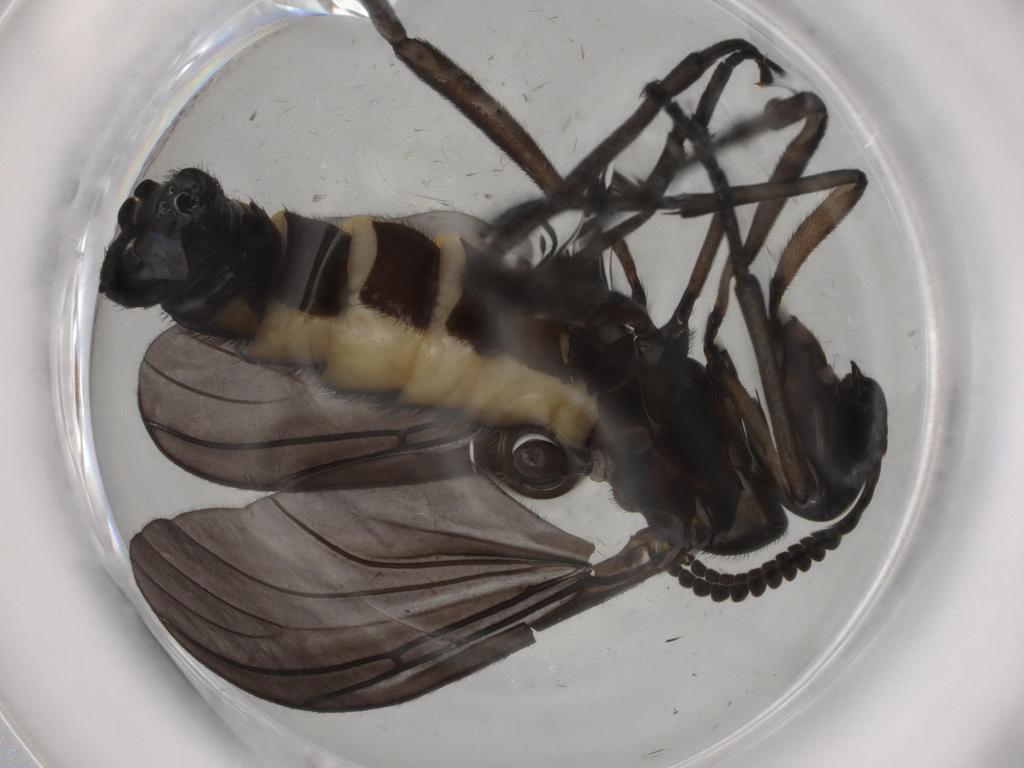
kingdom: Animalia
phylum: Arthropoda
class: Insecta
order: Diptera
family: Sciaridae
